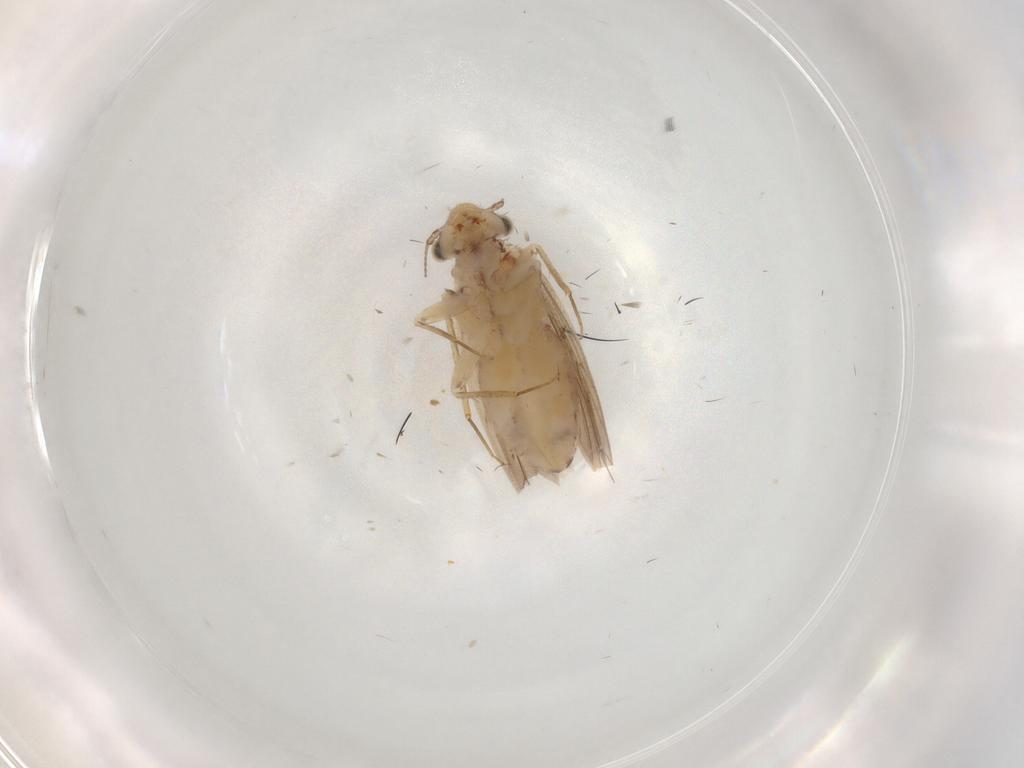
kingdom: Animalia
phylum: Arthropoda
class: Insecta
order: Psocodea
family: Lepidopsocidae
